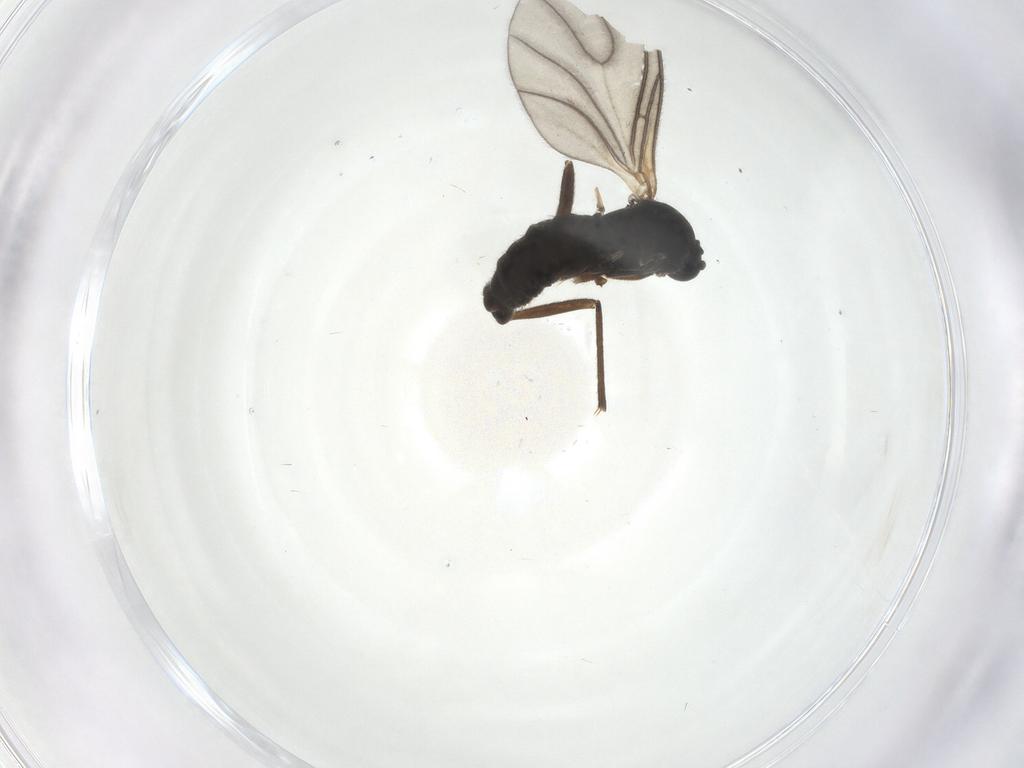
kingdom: Animalia
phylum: Arthropoda
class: Insecta
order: Diptera
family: Sciaridae
